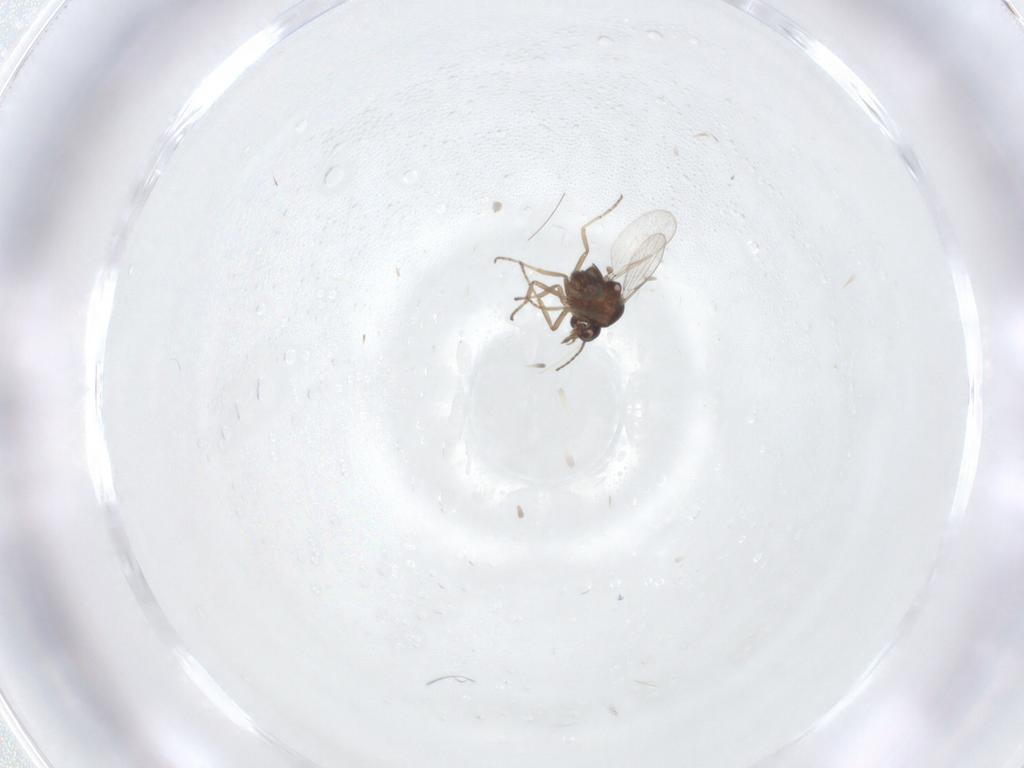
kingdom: Animalia
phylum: Arthropoda
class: Insecta
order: Diptera
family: Ceratopogonidae
